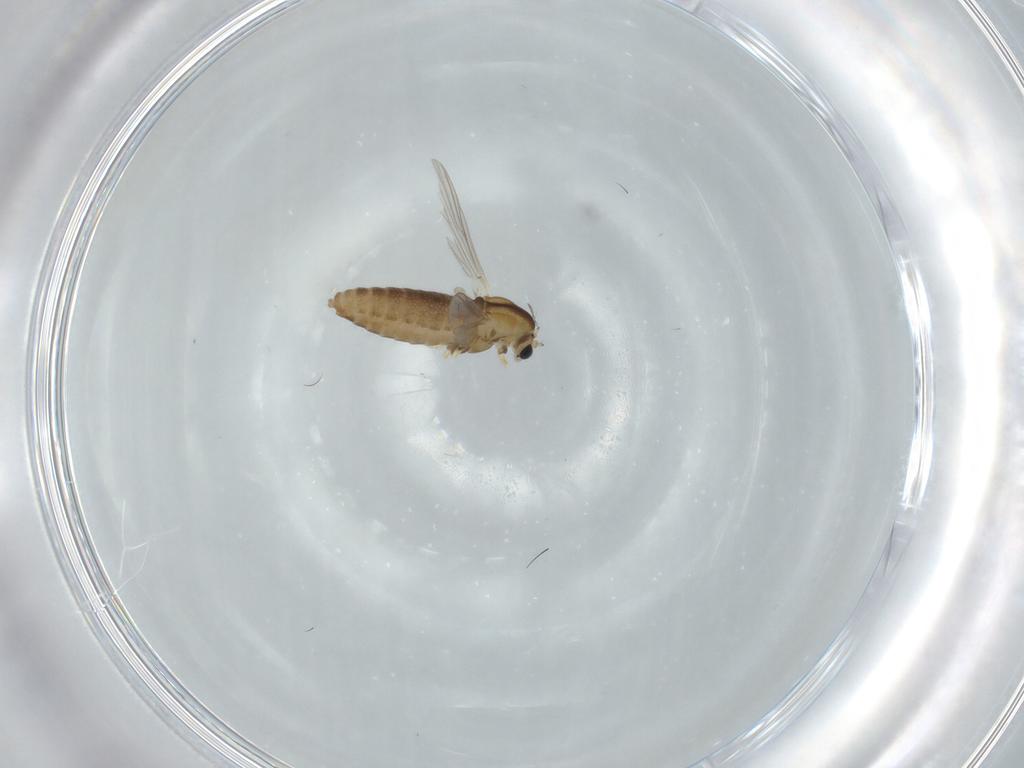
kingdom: Animalia
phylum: Arthropoda
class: Insecta
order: Diptera
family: Chironomidae
